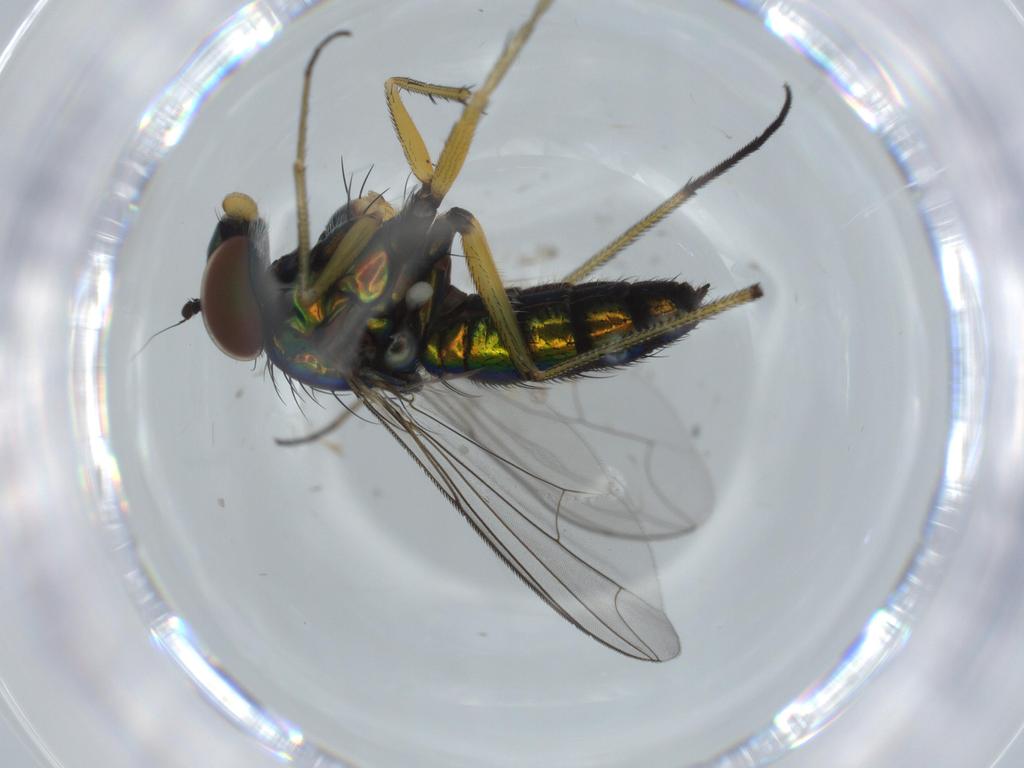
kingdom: Animalia
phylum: Arthropoda
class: Insecta
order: Diptera
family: Dolichopodidae
